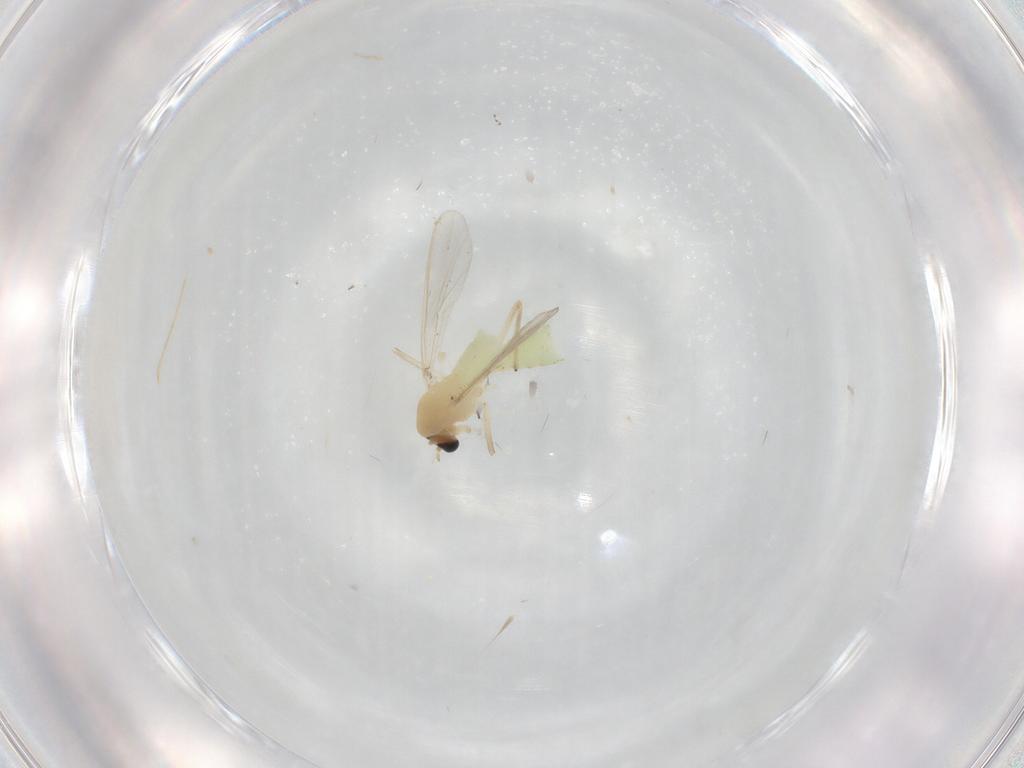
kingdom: Animalia
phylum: Arthropoda
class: Insecta
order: Diptera
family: Chironomidae
